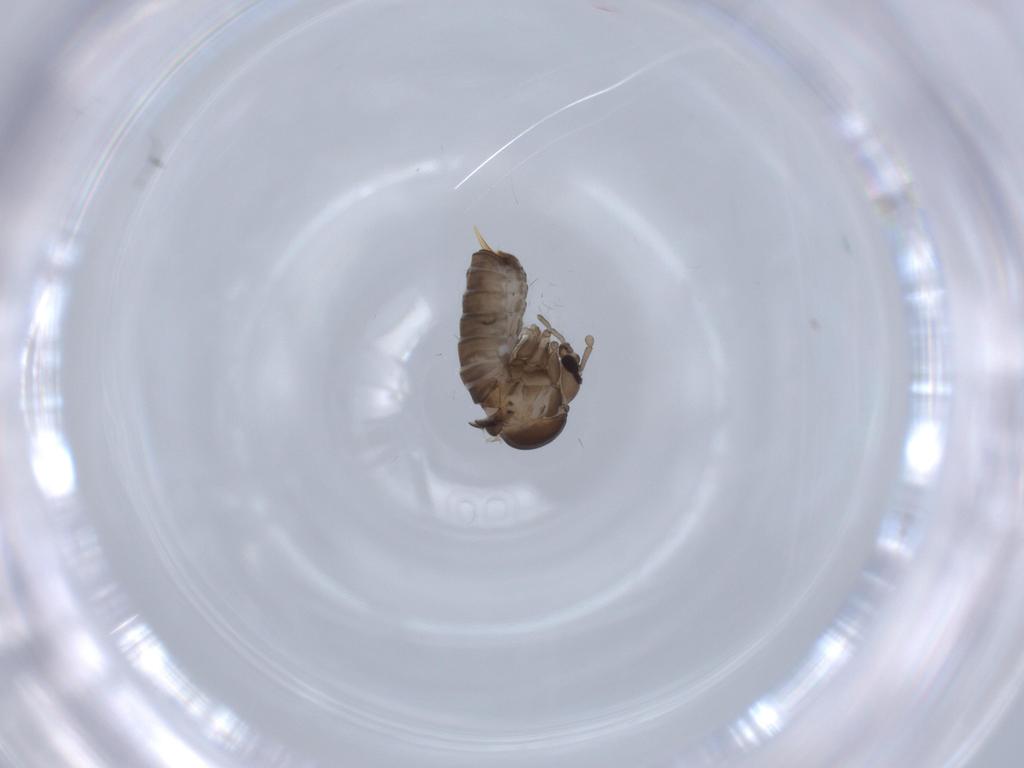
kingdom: Animalia
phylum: Arthropoda
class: Insecta
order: Diptera
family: Psychodidae
